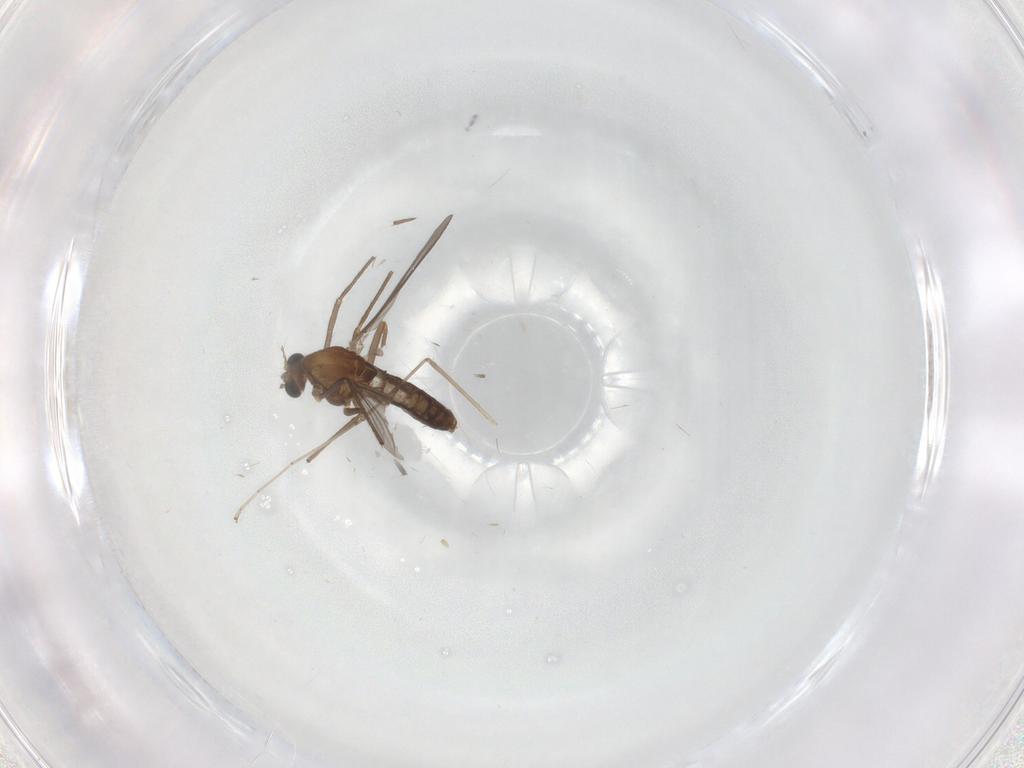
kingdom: Animalia
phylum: Arthropoda
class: Insecta
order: Diptera
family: Chironomidae
